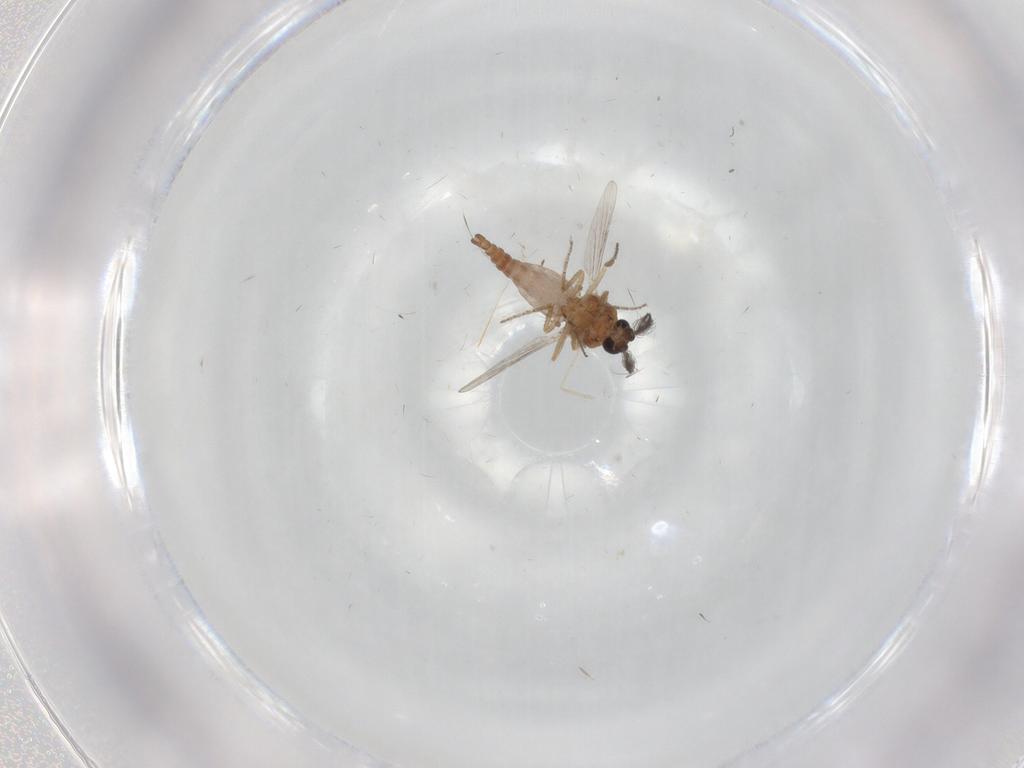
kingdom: Animalia
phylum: Arthropoda
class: Insecta
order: Diptera
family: Ceratopogonidae
